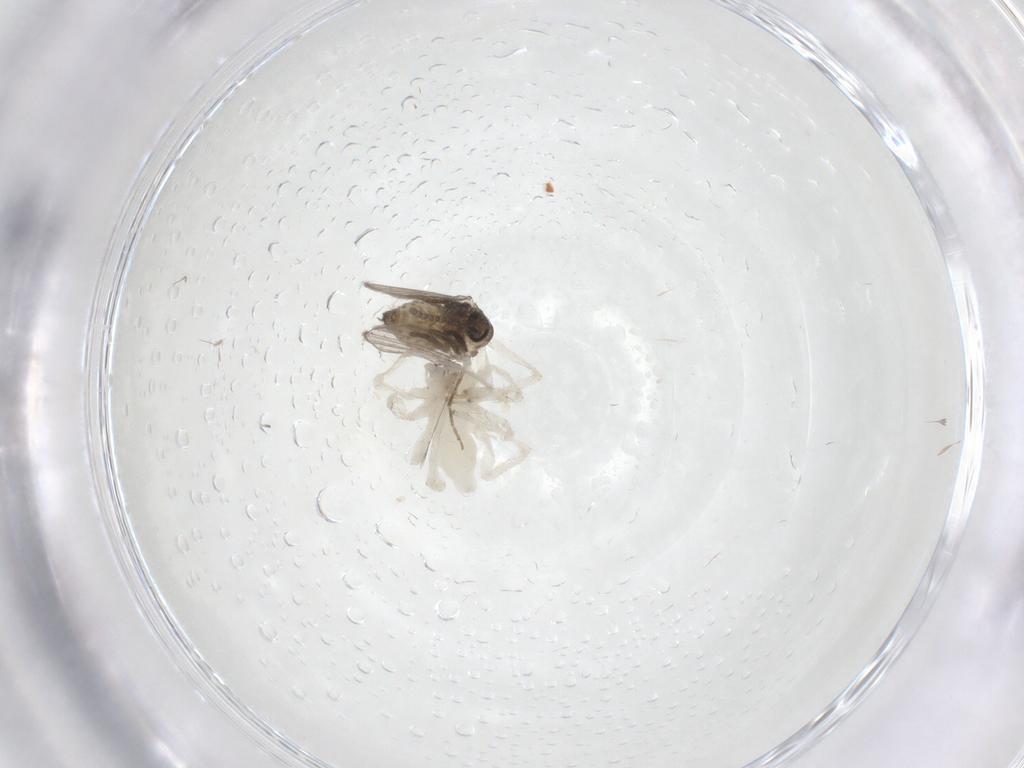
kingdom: Animalia
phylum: Arthropoda
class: Arachnida
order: Araneae
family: Anyphaenidae
